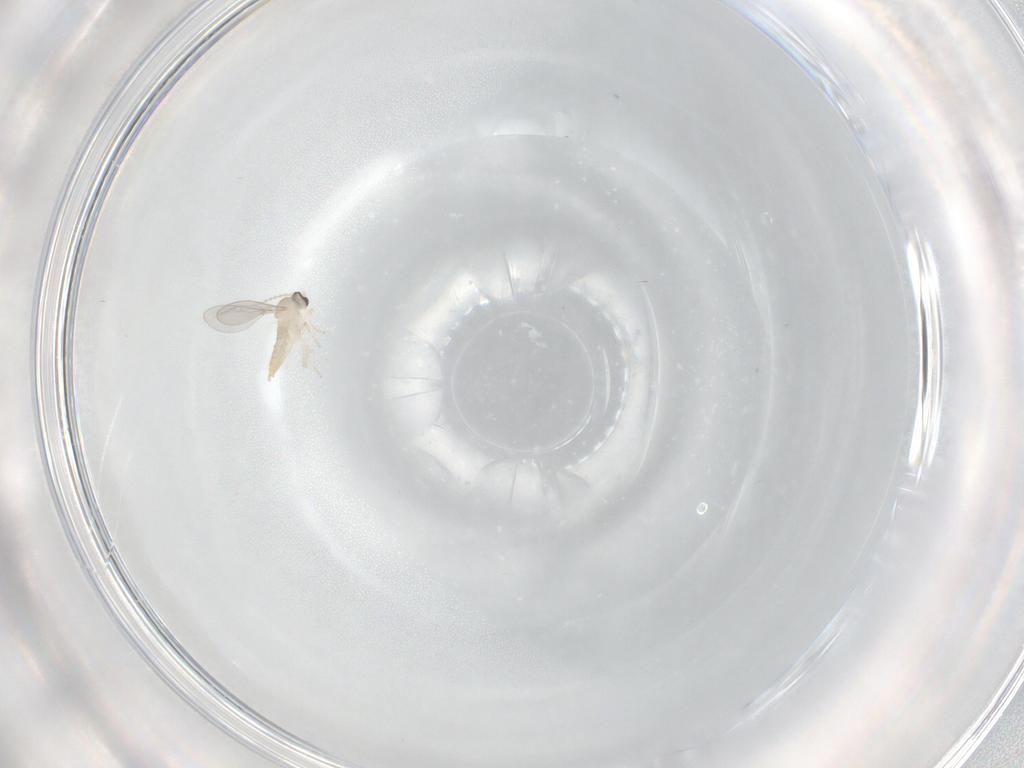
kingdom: Animalia
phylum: Arthropoda
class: Insecta
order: Diptera
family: Cecidomyiidae
